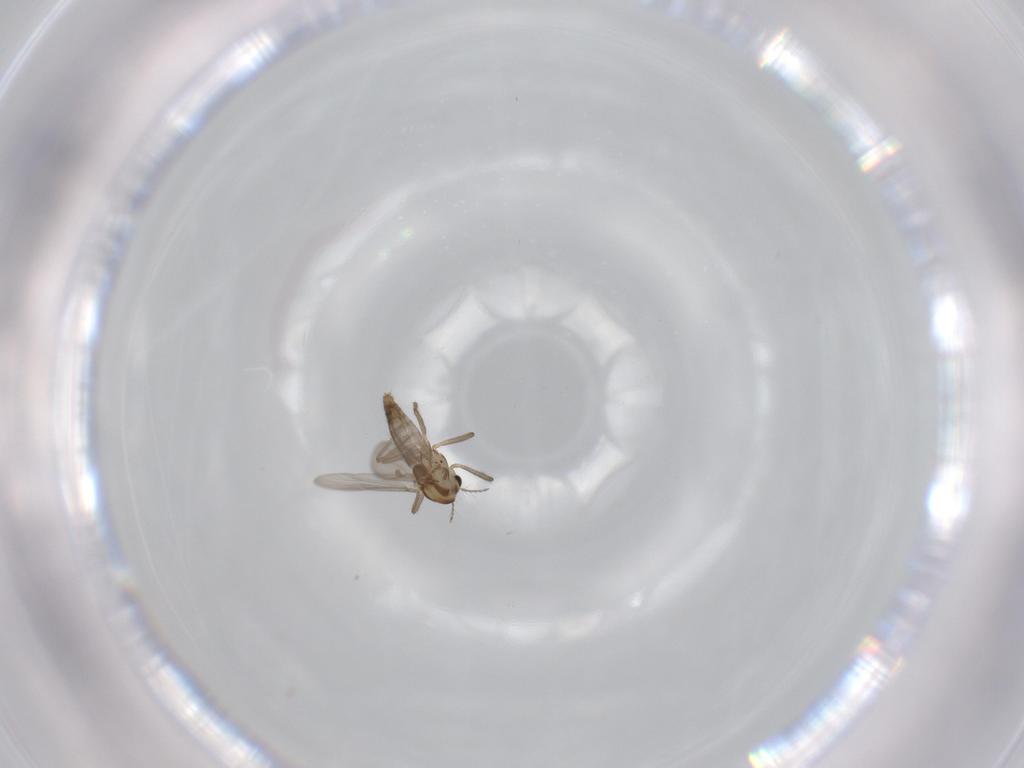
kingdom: Animalia
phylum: Arthropoda
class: Insecta
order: Diptera
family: Chironomidae
